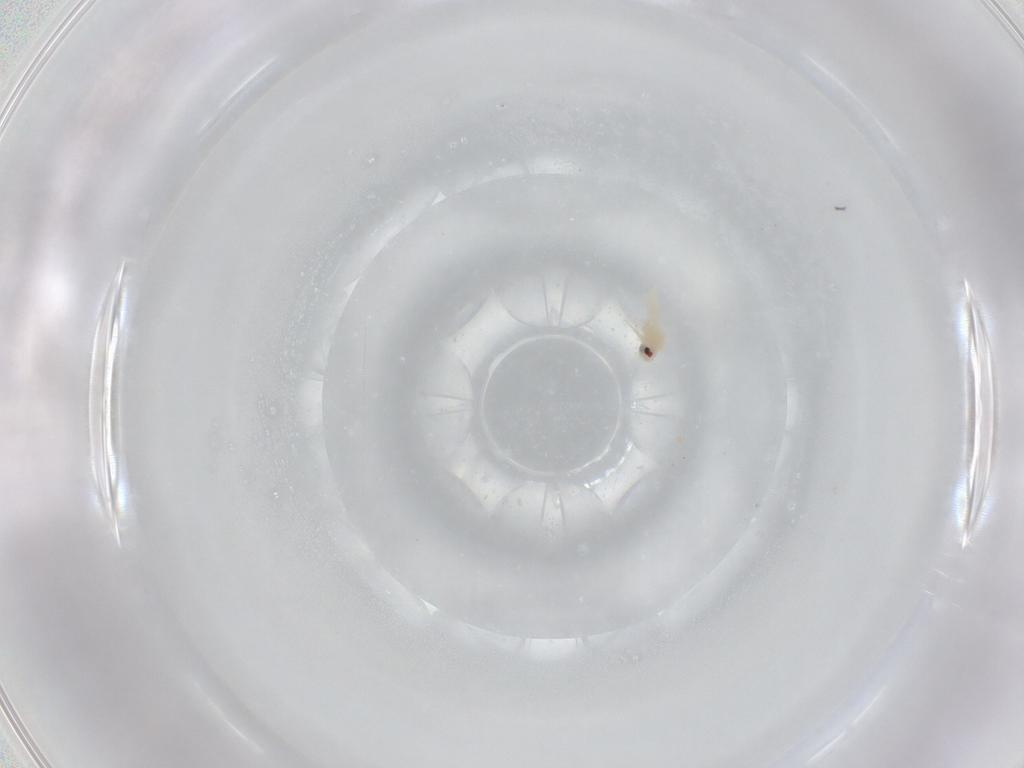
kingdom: Animalia
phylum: Arthropoda
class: Insecta
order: Hemiptera
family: Aleyrodidae
